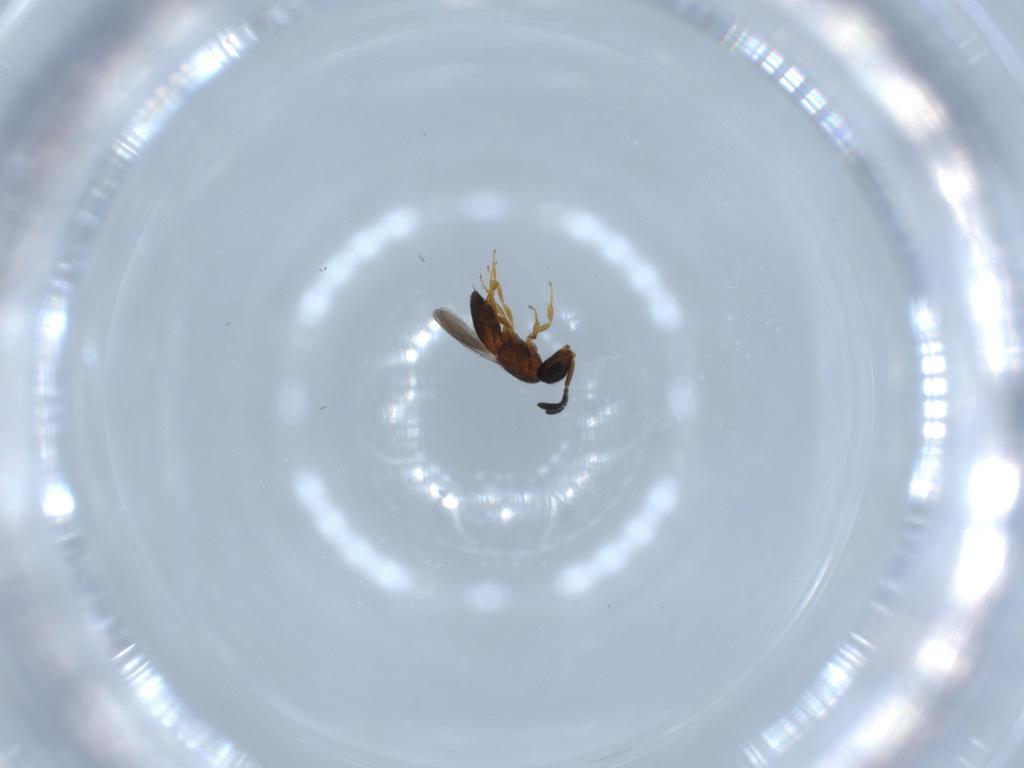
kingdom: Animalia
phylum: Arthropoda
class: Insecta
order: Hymenoptera
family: Scelionidae
